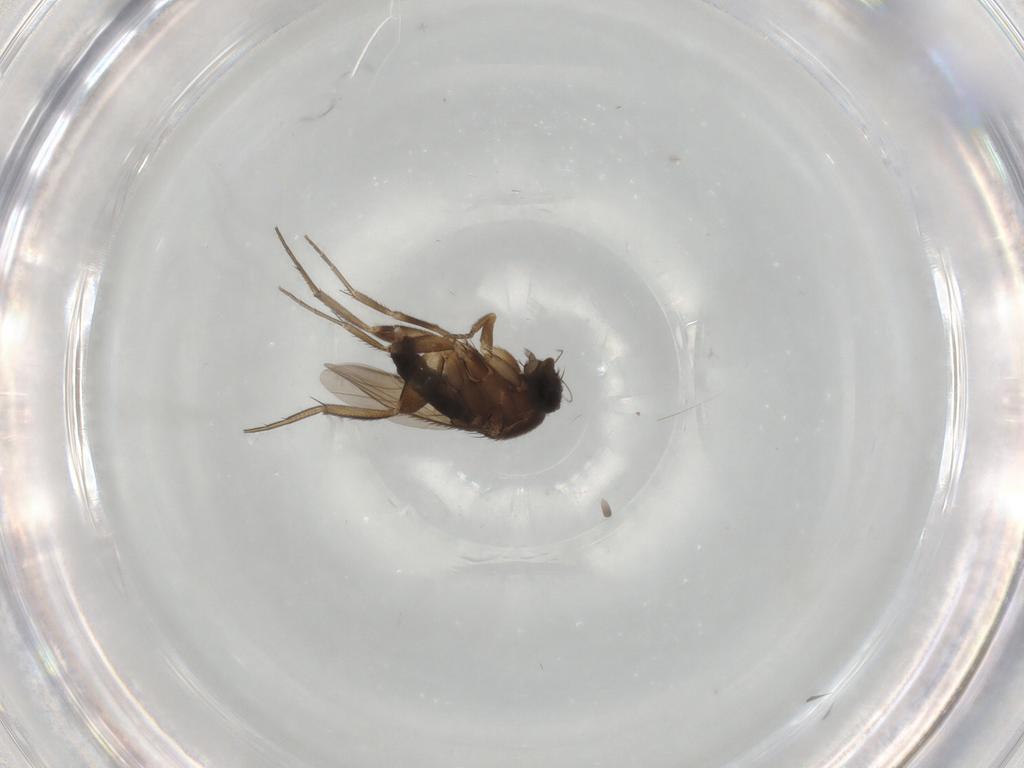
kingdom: Animalia
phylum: Arthropoda
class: Insecta
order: Diptera
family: Phoridae
